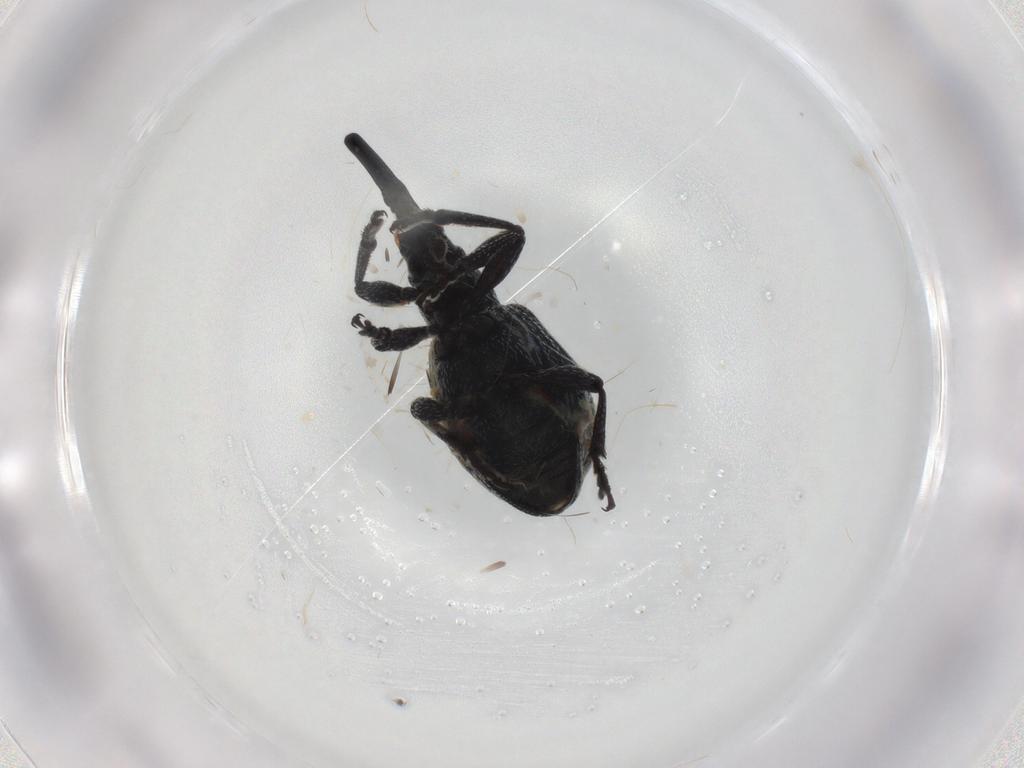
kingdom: Animalia
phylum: Arthropoda
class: Insecta
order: Coleoptera
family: Brentidae
